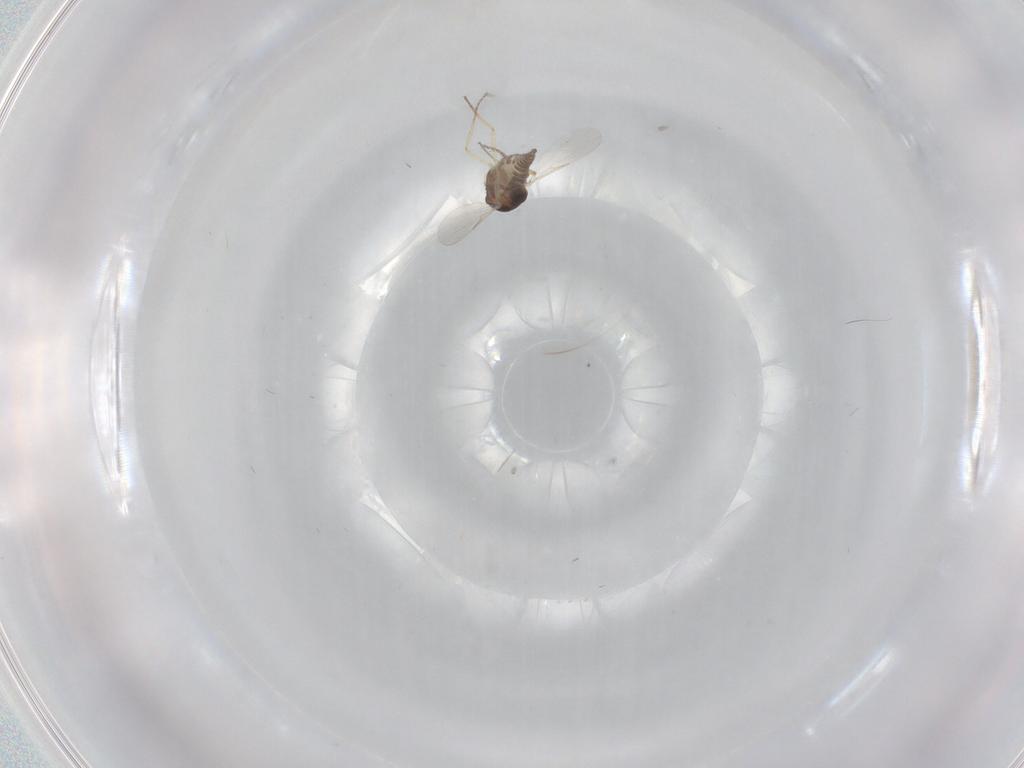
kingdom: Animalia
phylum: Arthropoda
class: Insecta
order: Diptera
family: Ceratopogonidae
